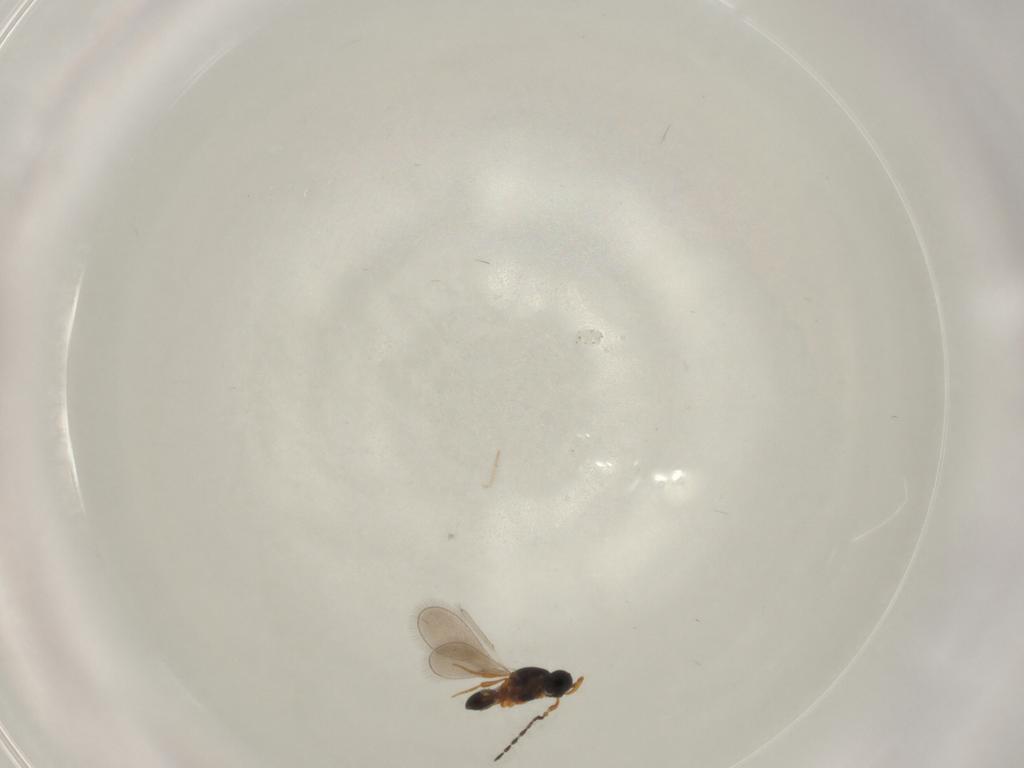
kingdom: Animalia
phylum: Arthropoda
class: Insecta
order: Hymenoptera
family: Platygastridae
